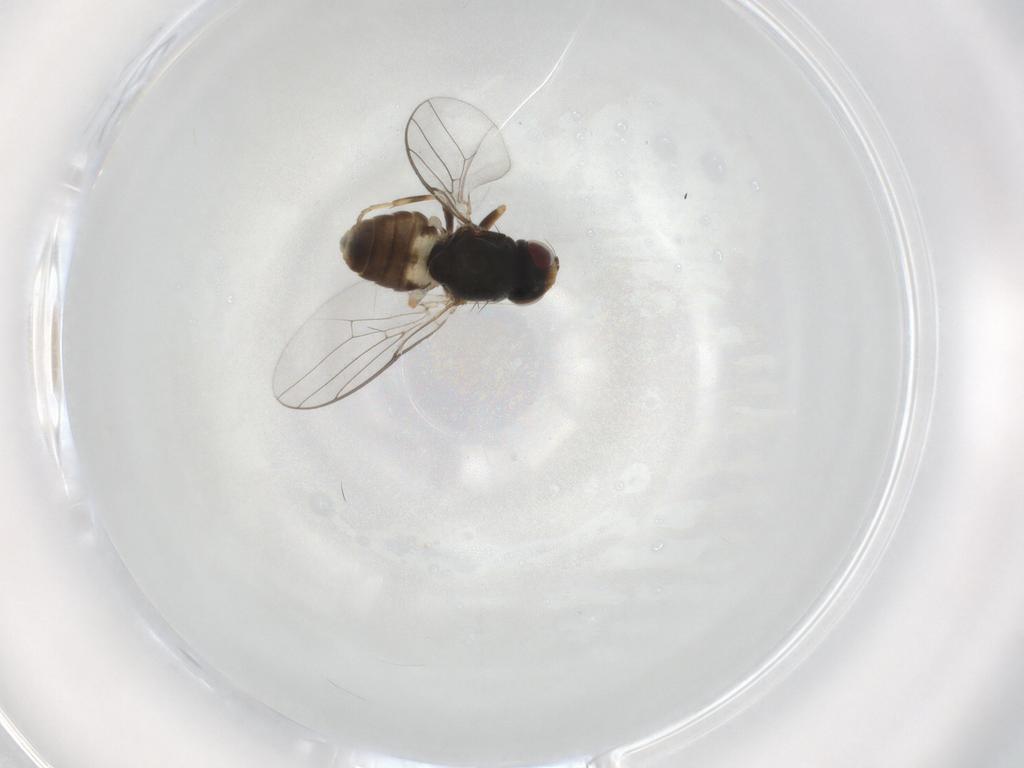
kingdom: Animalia
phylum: Arthropoda
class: Insecta
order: Diptera
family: Chloropidae
